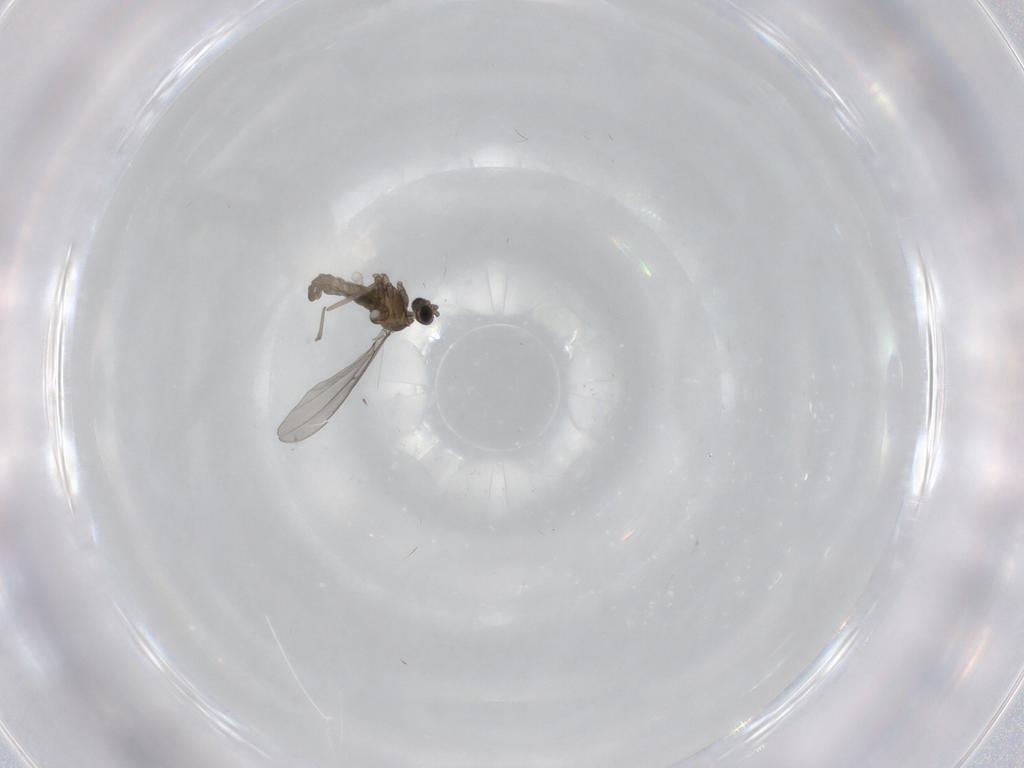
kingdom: Animalia
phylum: Arthropoda
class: Insecta
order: Diptera
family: Cecidomyiidae
